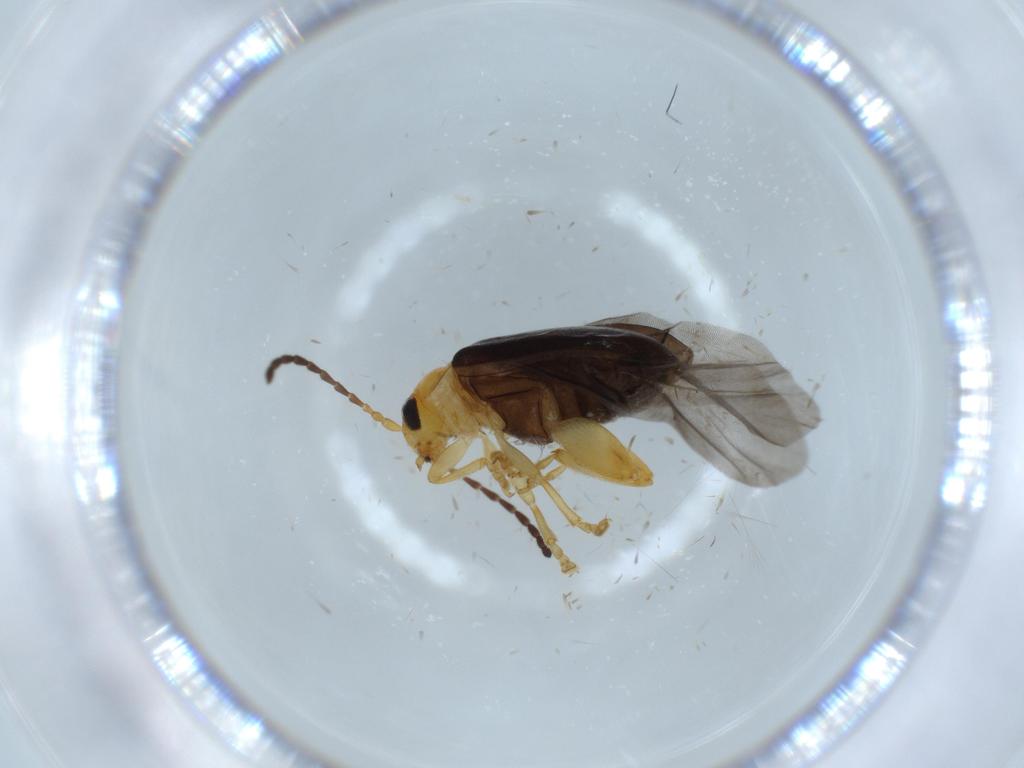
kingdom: Animalia
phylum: Arthropoda
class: Insecta
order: Coleoptera
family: Chrysomelidae
